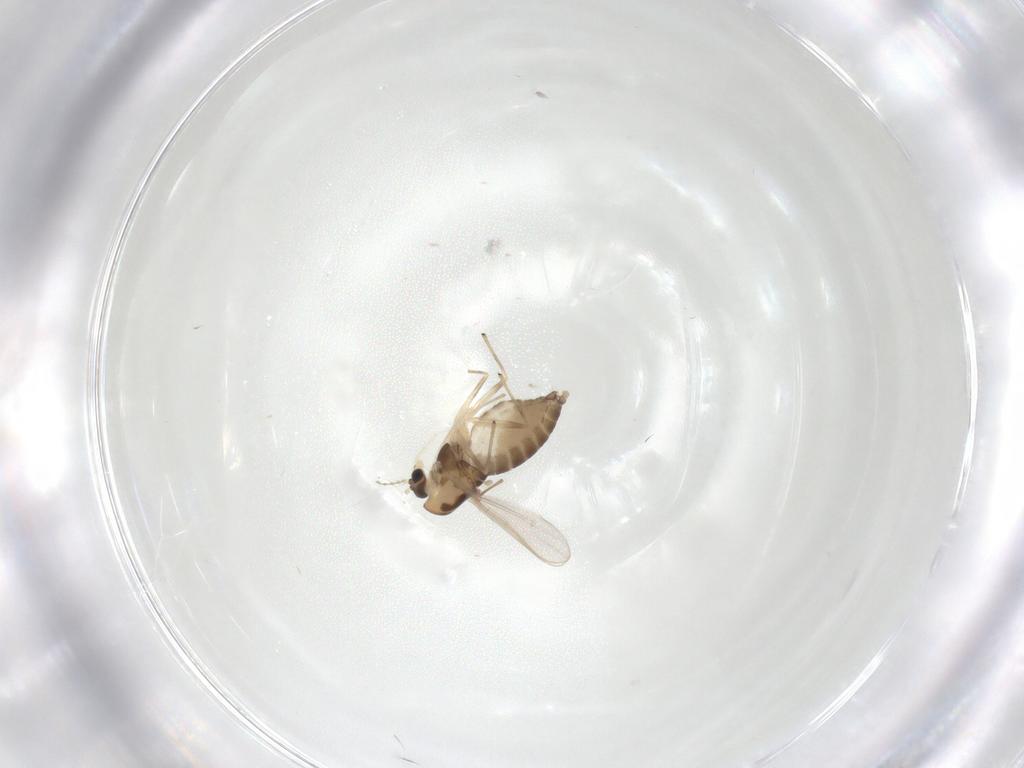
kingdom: Animalia
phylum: Arthropoda
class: Insecta
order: Diptera
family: Chironomidae
